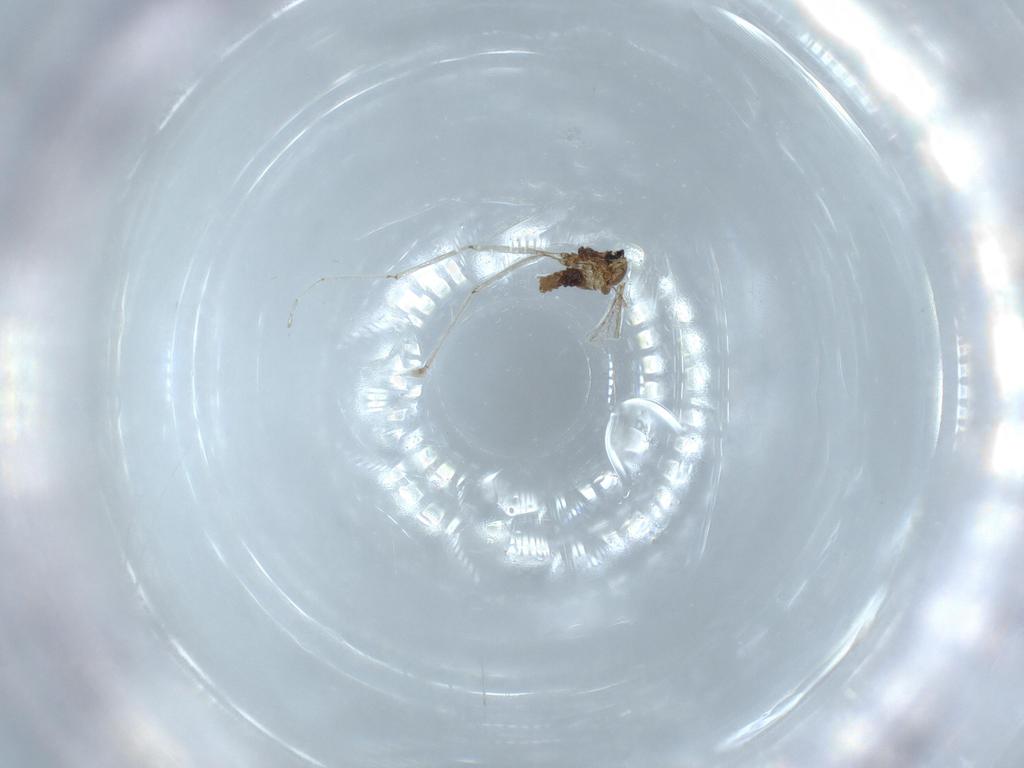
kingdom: Animalia
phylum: Arthropoda
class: Insecta
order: Diptera
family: Cecidomyiidae
